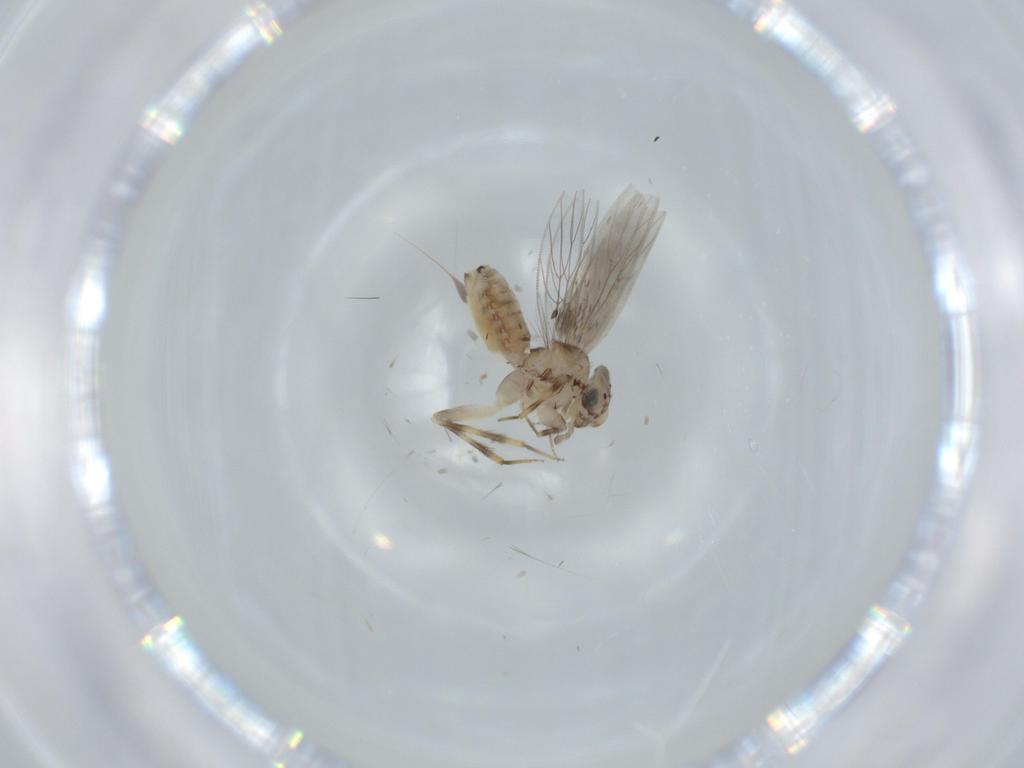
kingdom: Animalia
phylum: Arthropoda
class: Insecta
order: Psocodea
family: Lepidopsocidae
